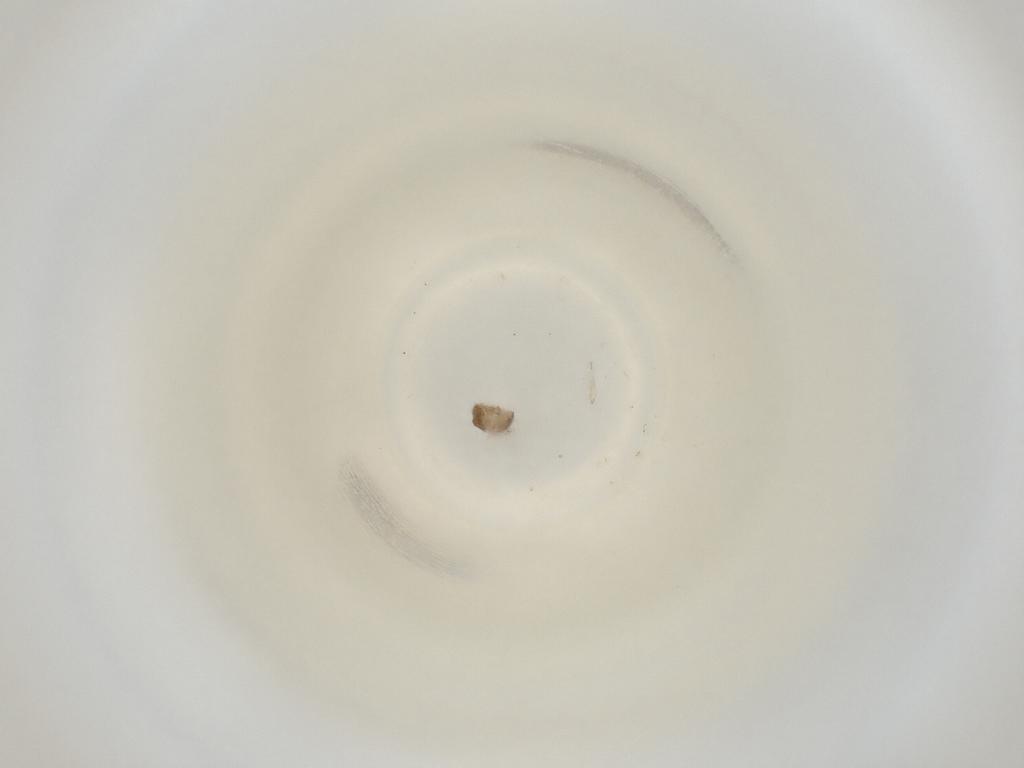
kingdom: Animalia
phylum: Arthropoda
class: Insecta
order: Diptera
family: Cecidomyiidae
